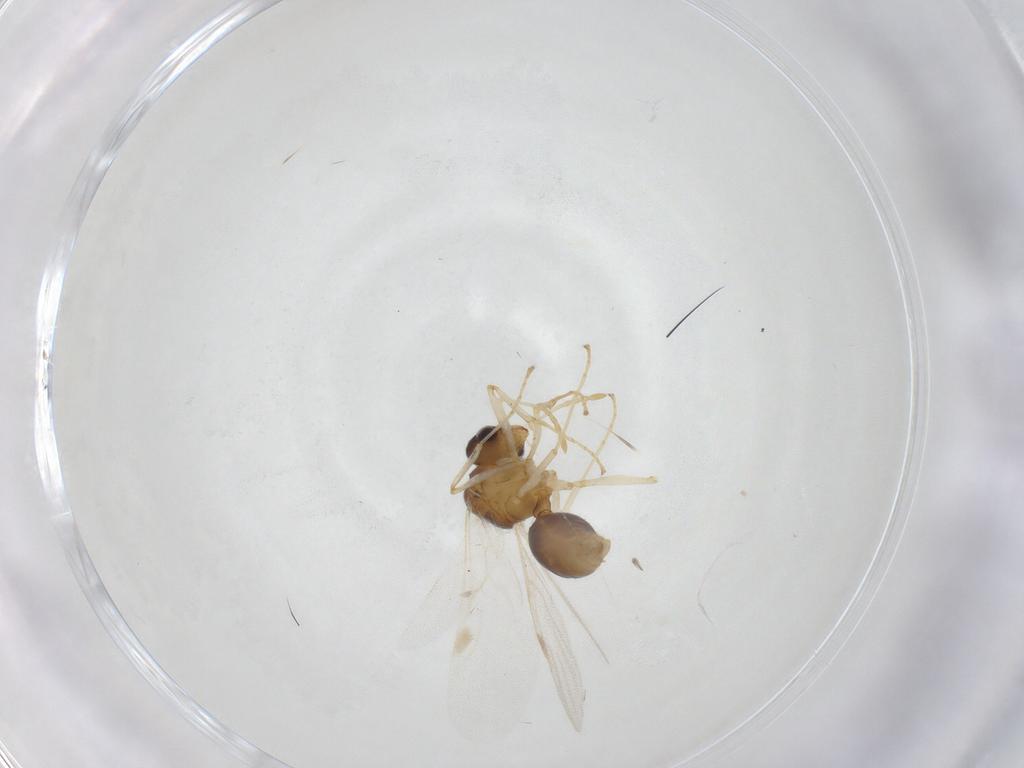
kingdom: Animalia
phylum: Arthropoda
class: Insecta
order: Hymenoptera
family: Formicidae
